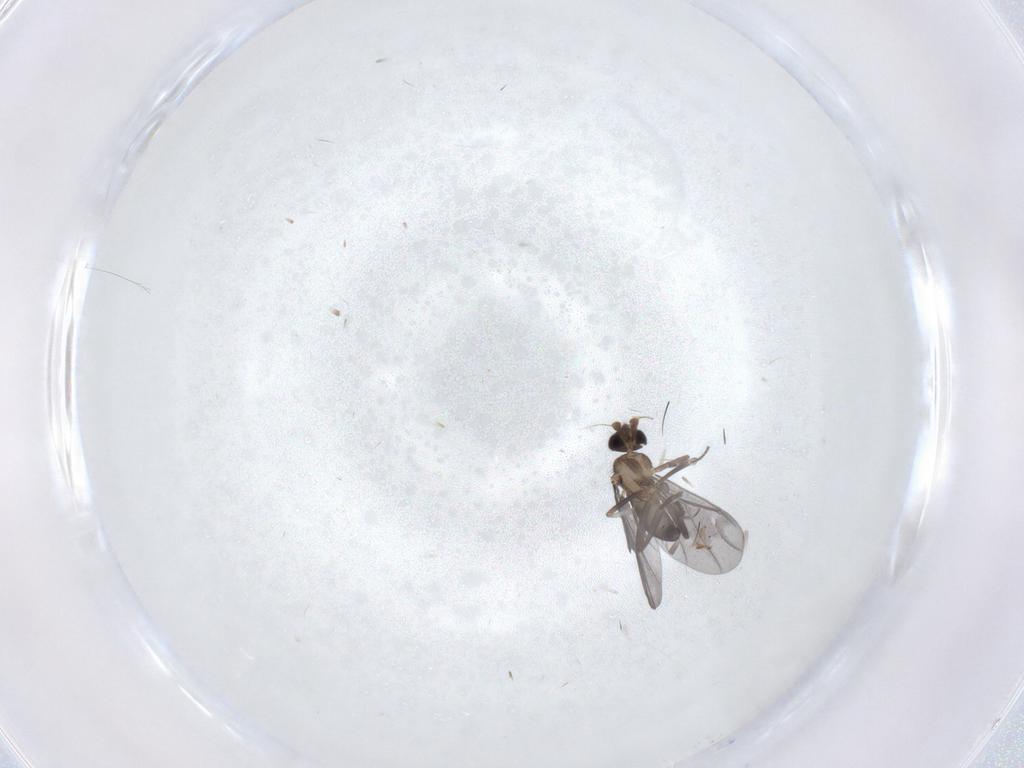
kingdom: Animalia
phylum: Arthropoda
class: Insecta
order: Diptera
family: Phoridae
